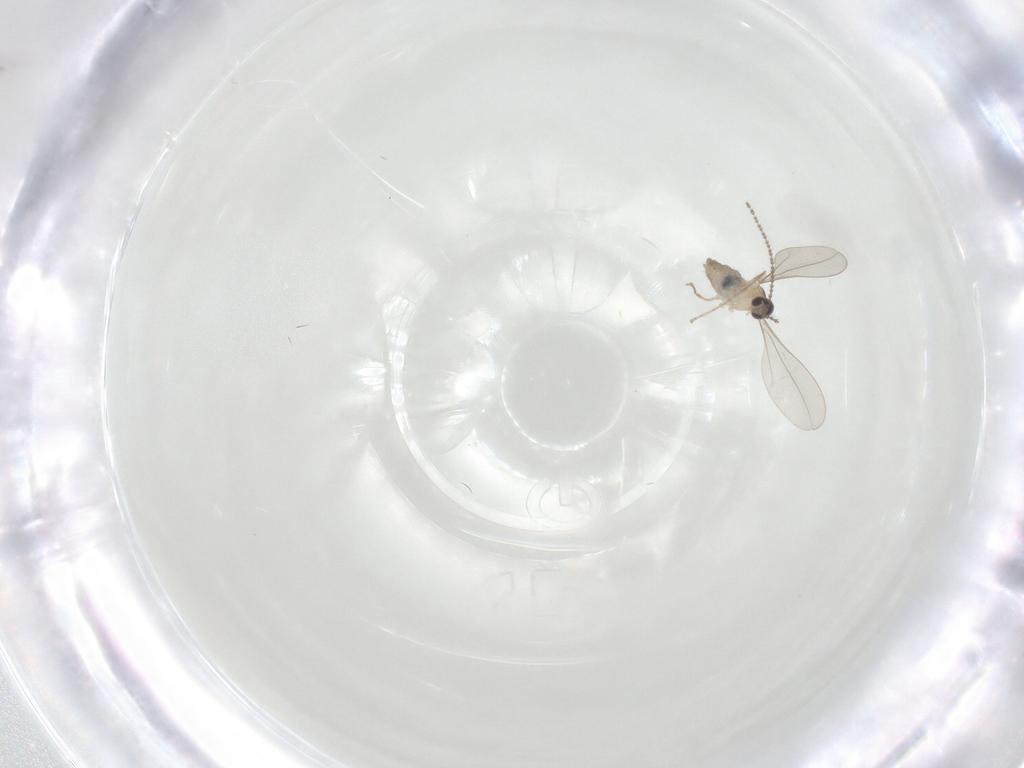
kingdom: Animalia
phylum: Arthropoda
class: Insecta
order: Diptera
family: Cecidomyiidae
